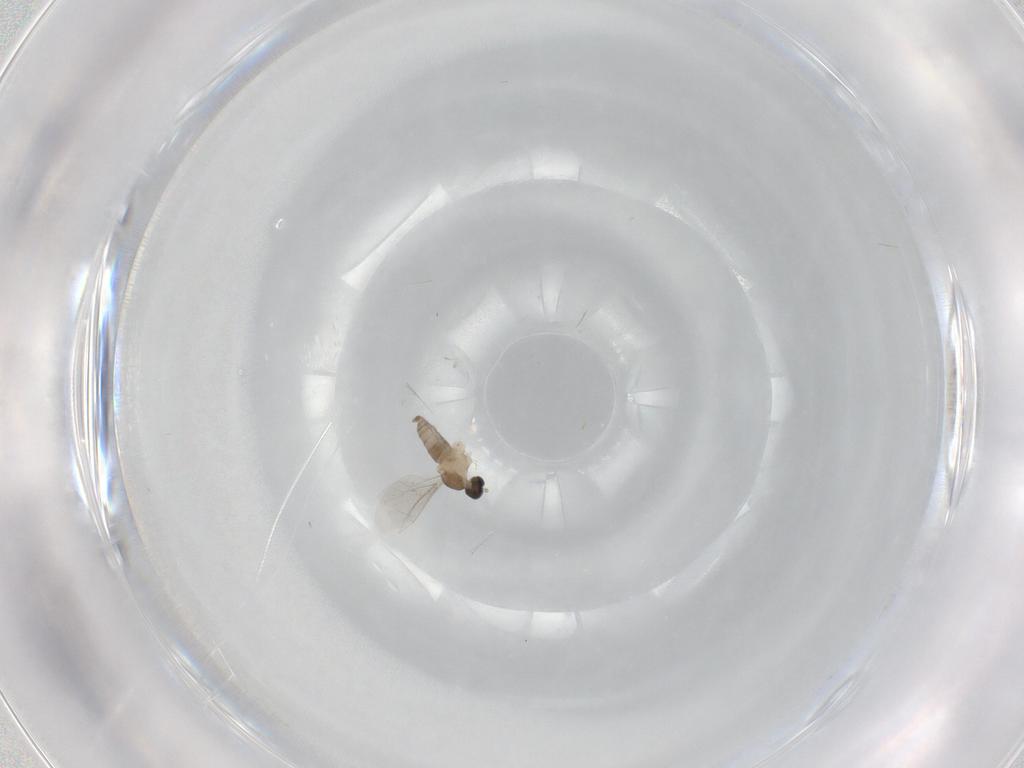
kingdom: Animalia
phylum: Arthropoda
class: Insecta
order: Diptera
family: Cecidomyiidae
